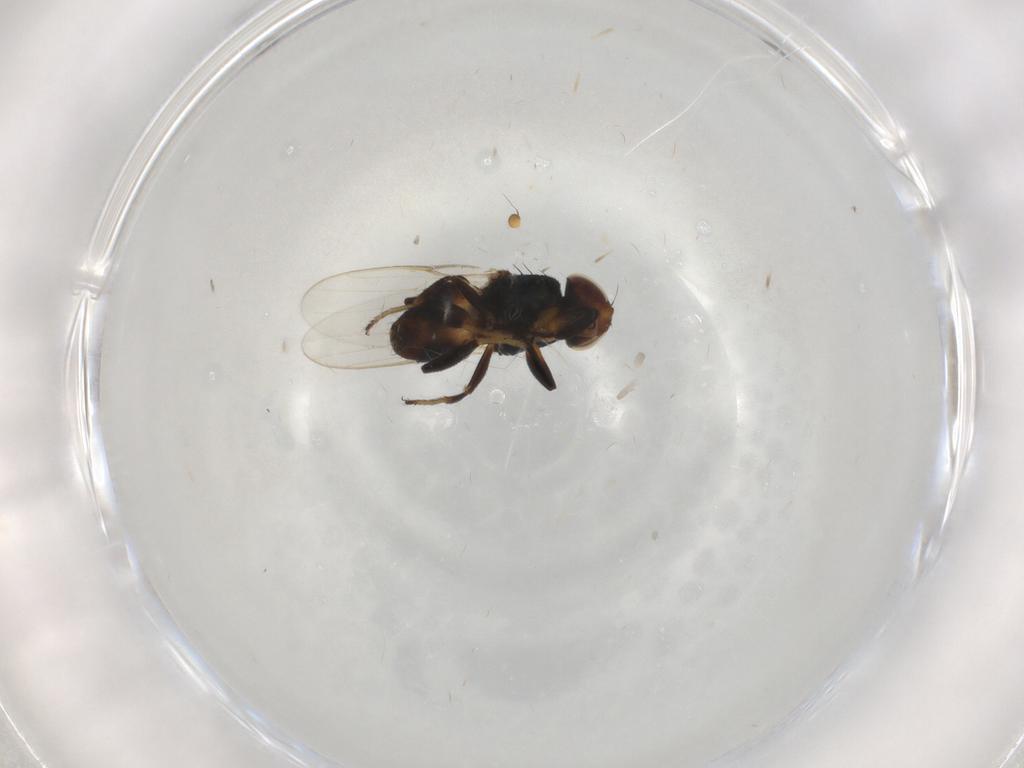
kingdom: Animalia
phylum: Arthropoda
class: Insecta
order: Diptera
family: Chloropidae
